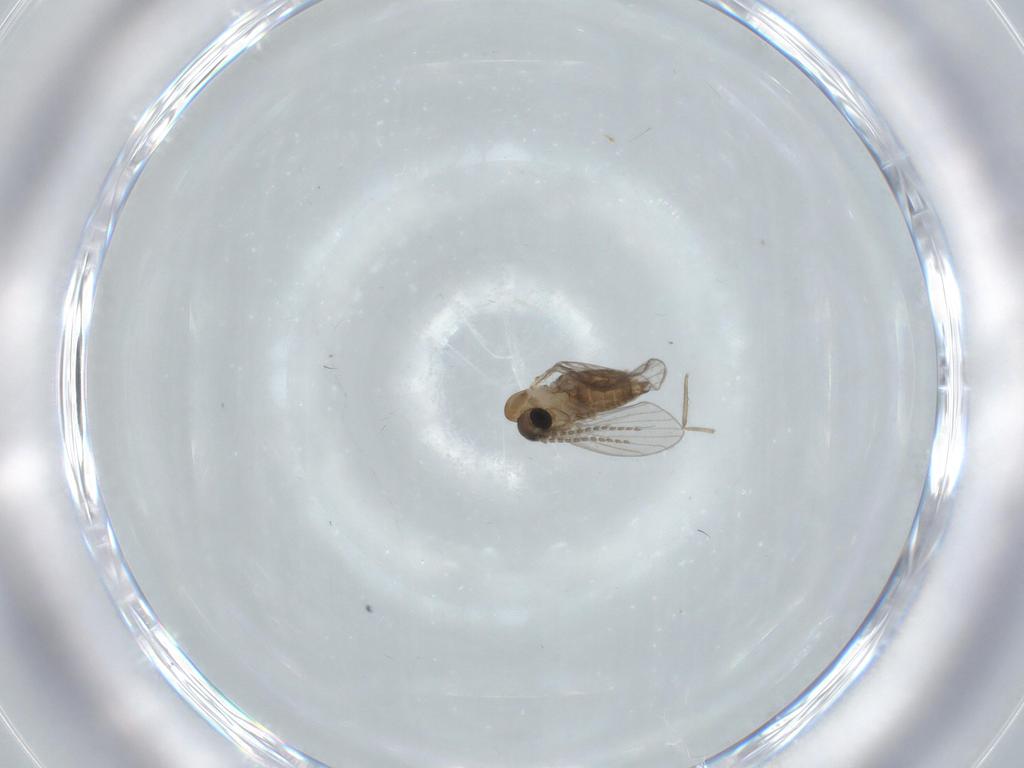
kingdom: Animalia
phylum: Arthropoda
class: Insecta
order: Diptera
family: Psychodidae
